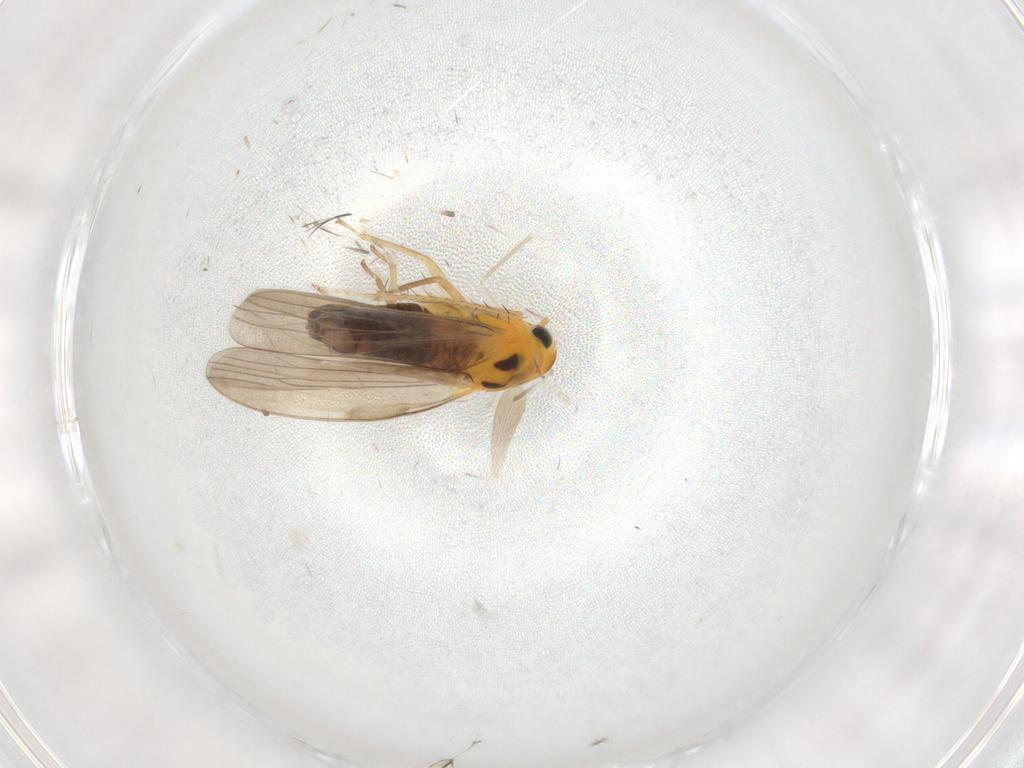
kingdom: Animalia
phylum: Arthropoda
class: Insecta
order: Hemiptera
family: Cicadellidae
